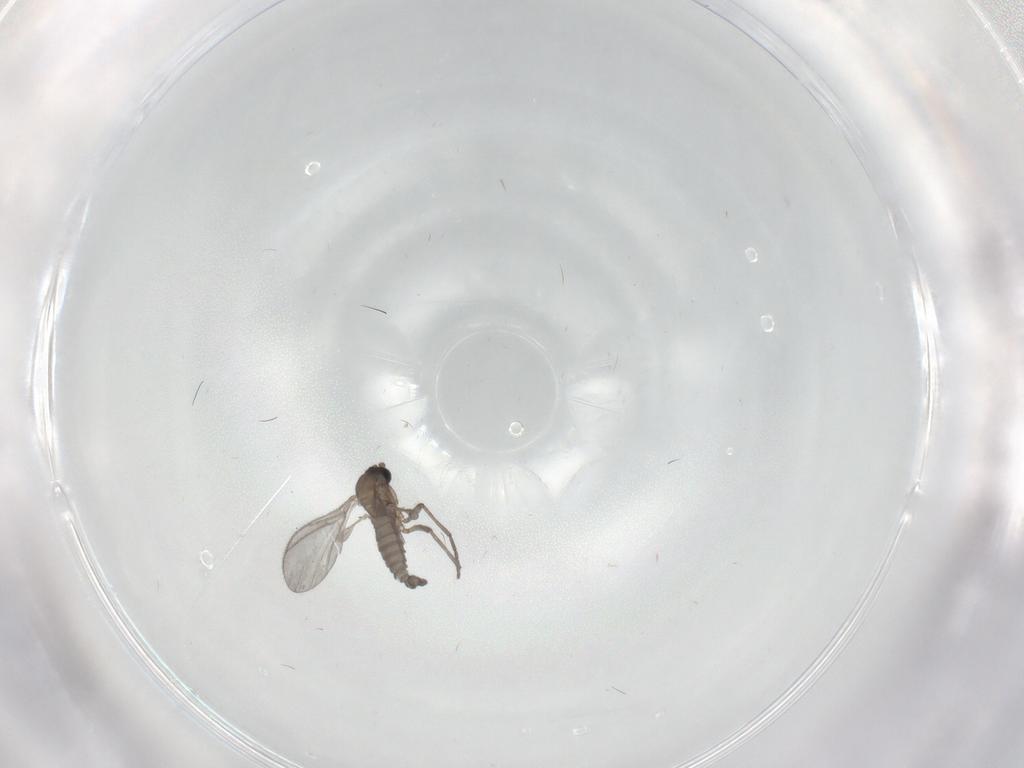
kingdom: Animalia
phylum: Arthropoda
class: Insecta
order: Diptera
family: Sciaridae
